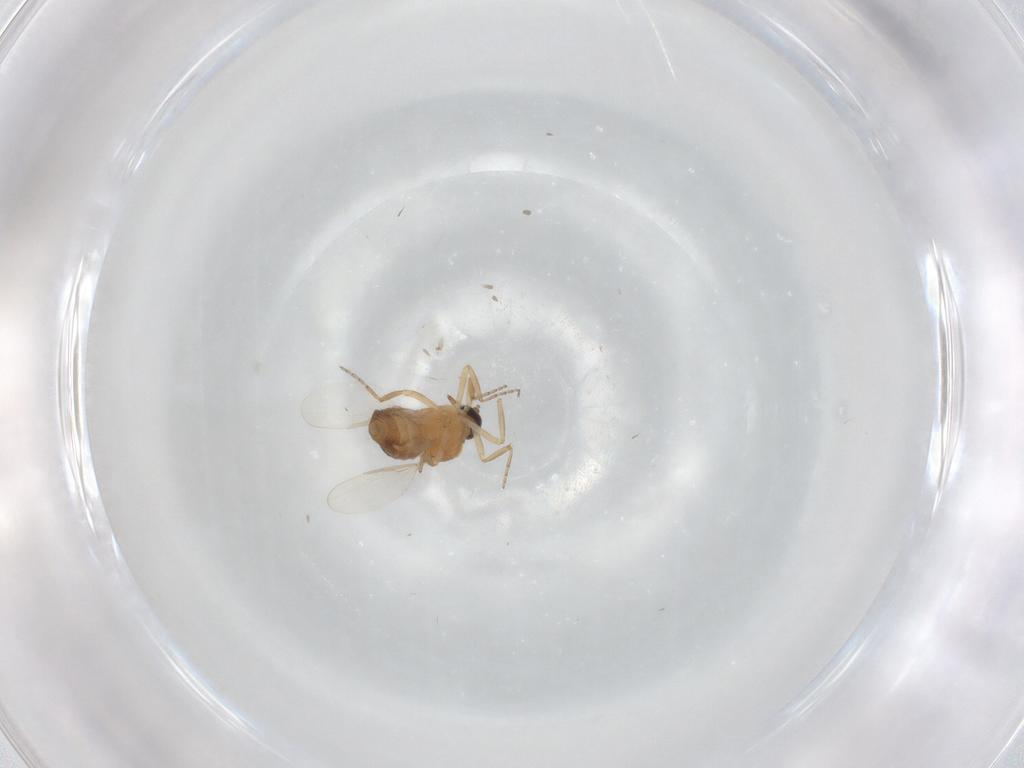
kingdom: Animalia
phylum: Arthropoda
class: Insecta
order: Diptera
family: Ceratopogonidae
